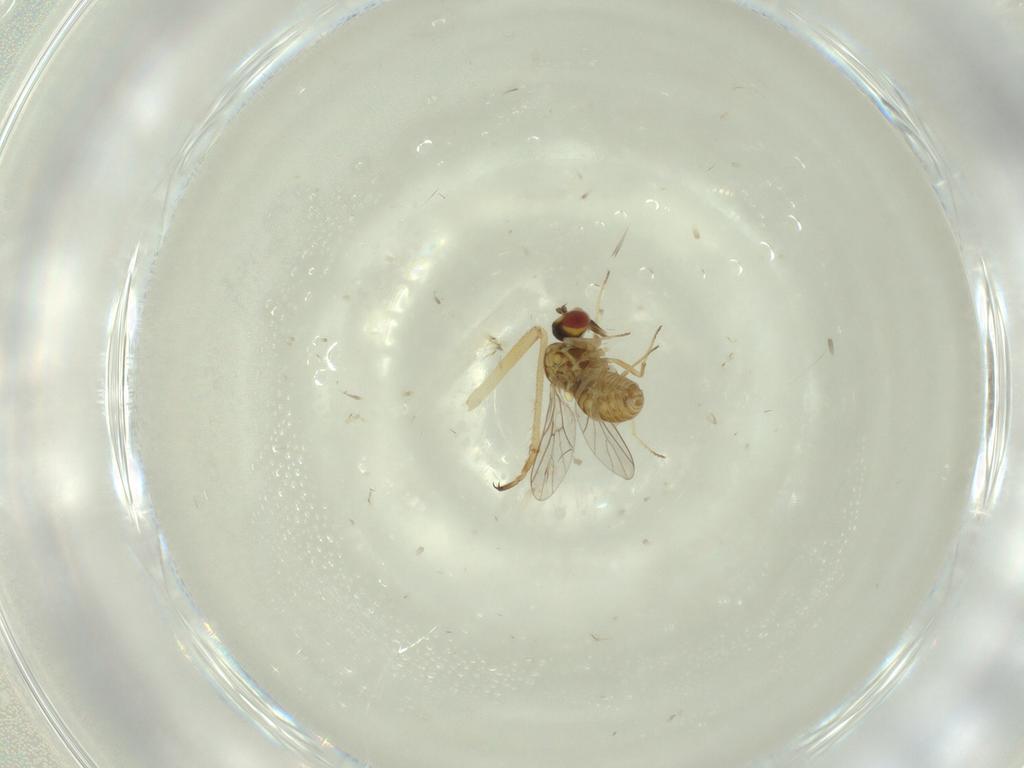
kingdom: Animalia
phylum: Arthropoda
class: Insecta
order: Diptera
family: Bombyliidae
